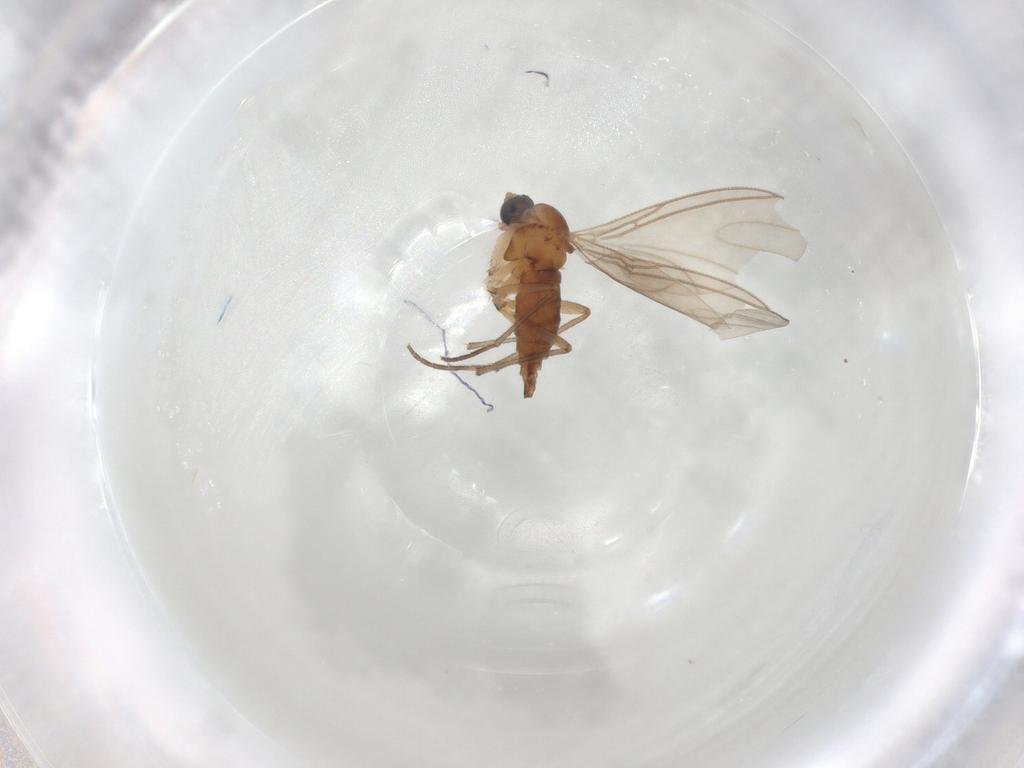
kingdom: Animalia
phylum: Arthropoda
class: Insecta
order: Diptera
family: Sciaridae
